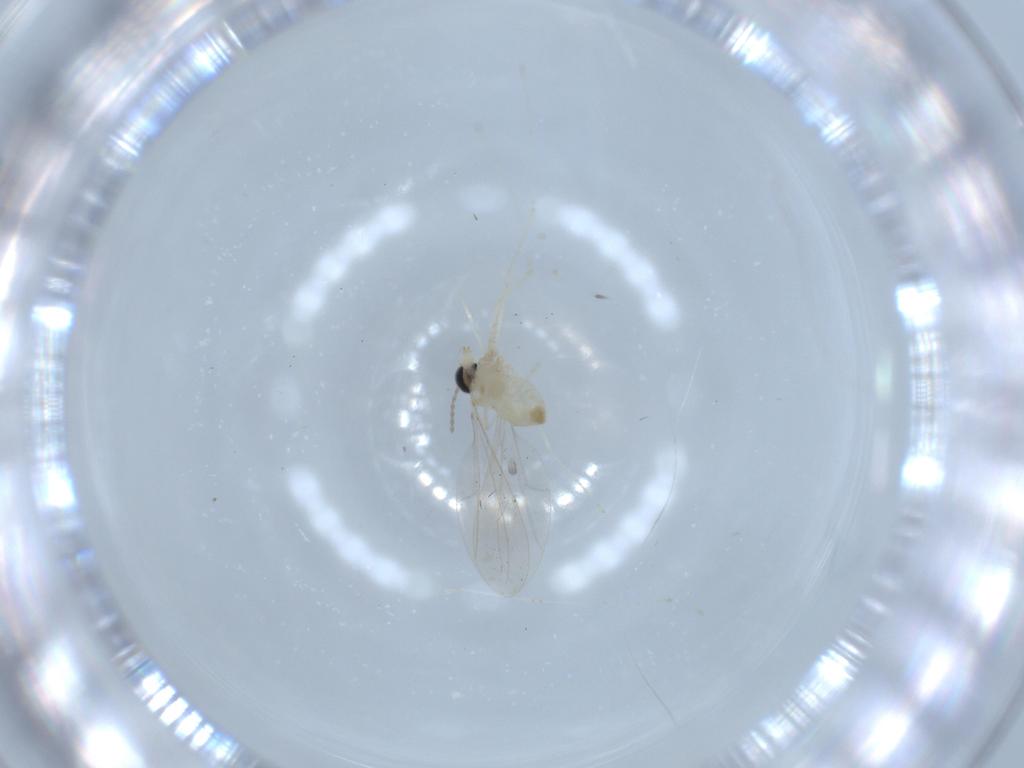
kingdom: Animalia
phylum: Arthropoda
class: Insecta
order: Diptera
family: Cecidomyiidae
